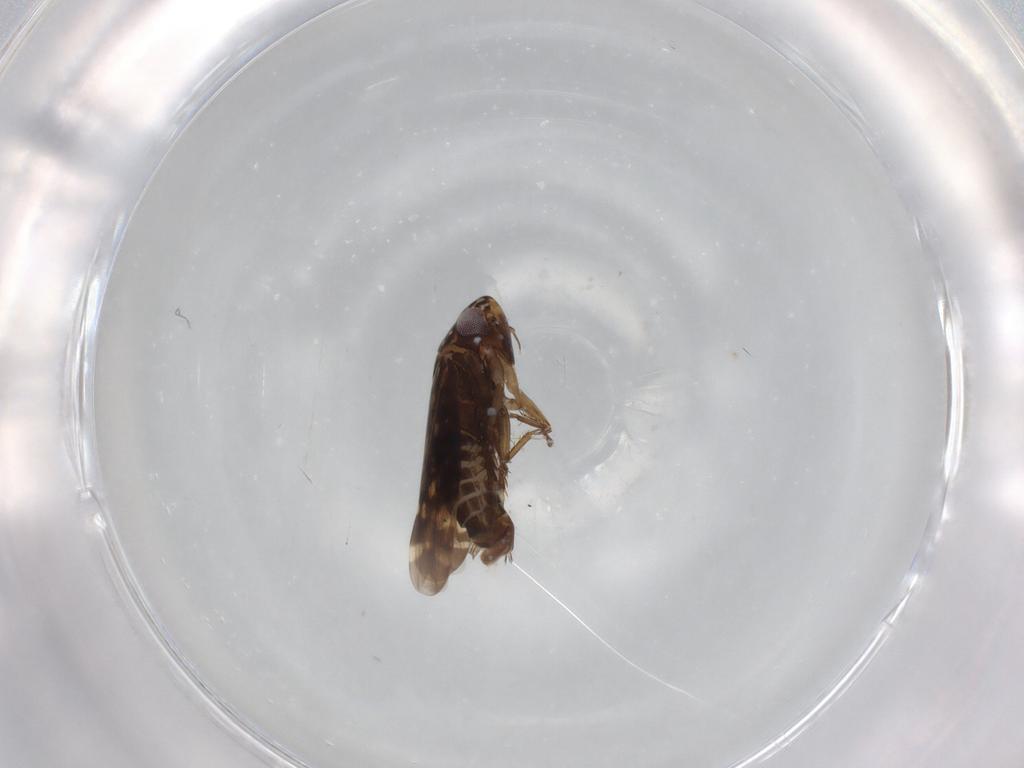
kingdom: Animalia
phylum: Arthropoda
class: Insecta
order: Hemiptera
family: Cicadellidae
